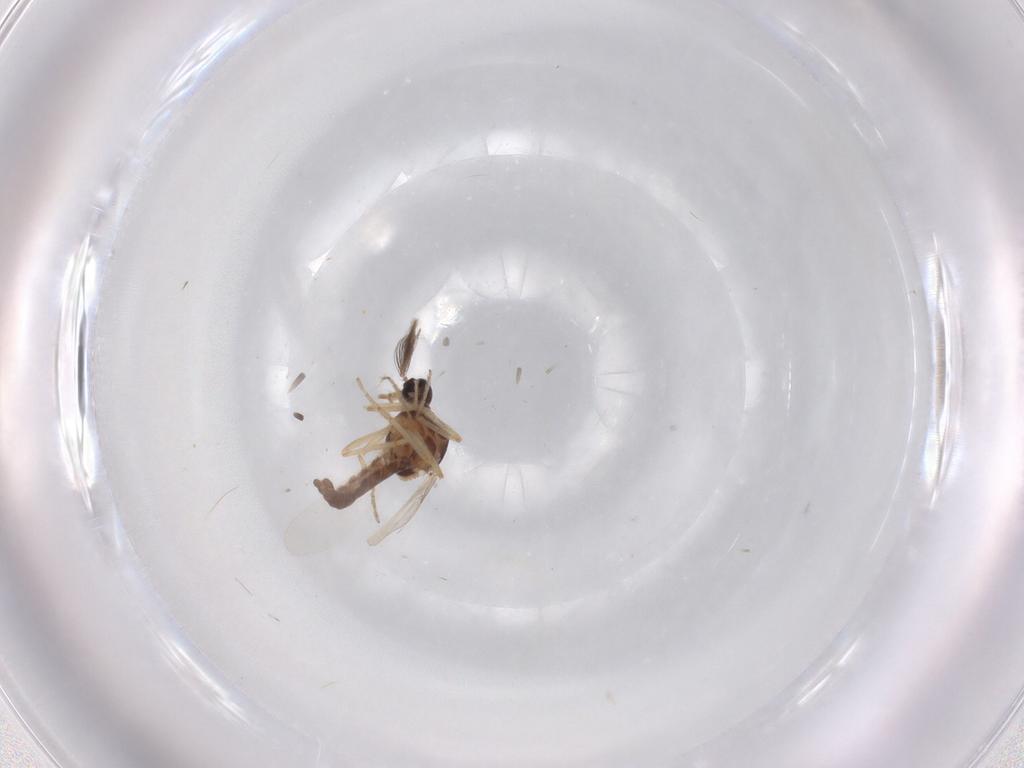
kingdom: Animalia
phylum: Arthropoda
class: Insecta
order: Diptera
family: Ceratopogonidae
